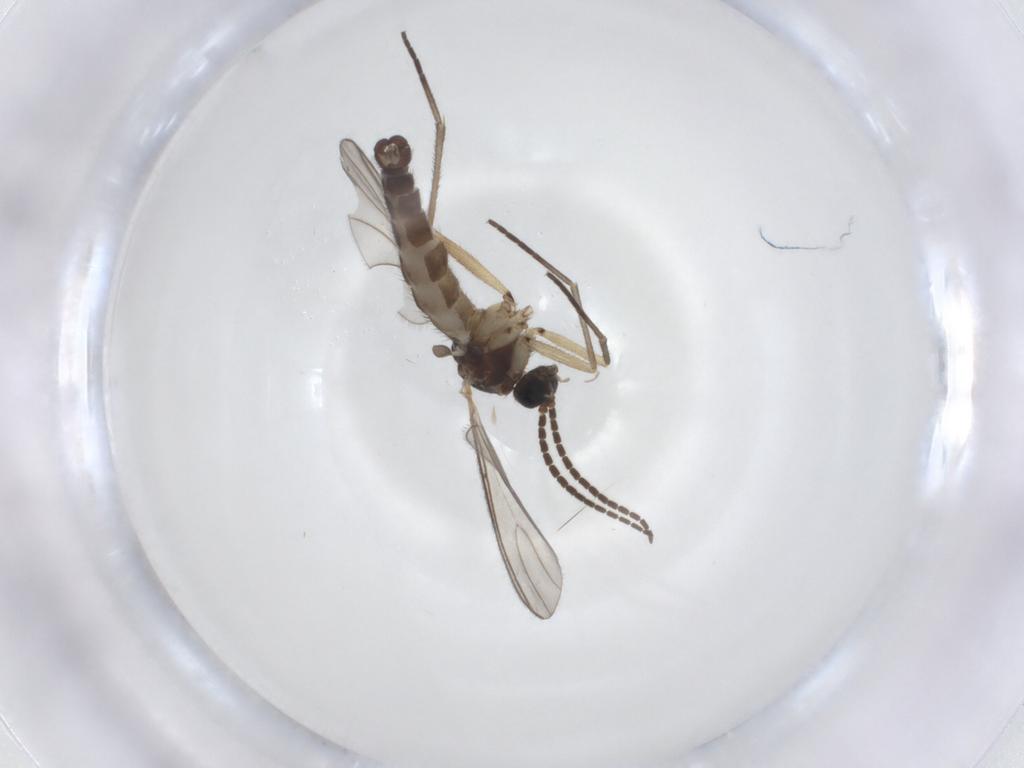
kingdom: Animalia
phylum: Arthropoda
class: Insecta
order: Diptera
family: Sciaridae
